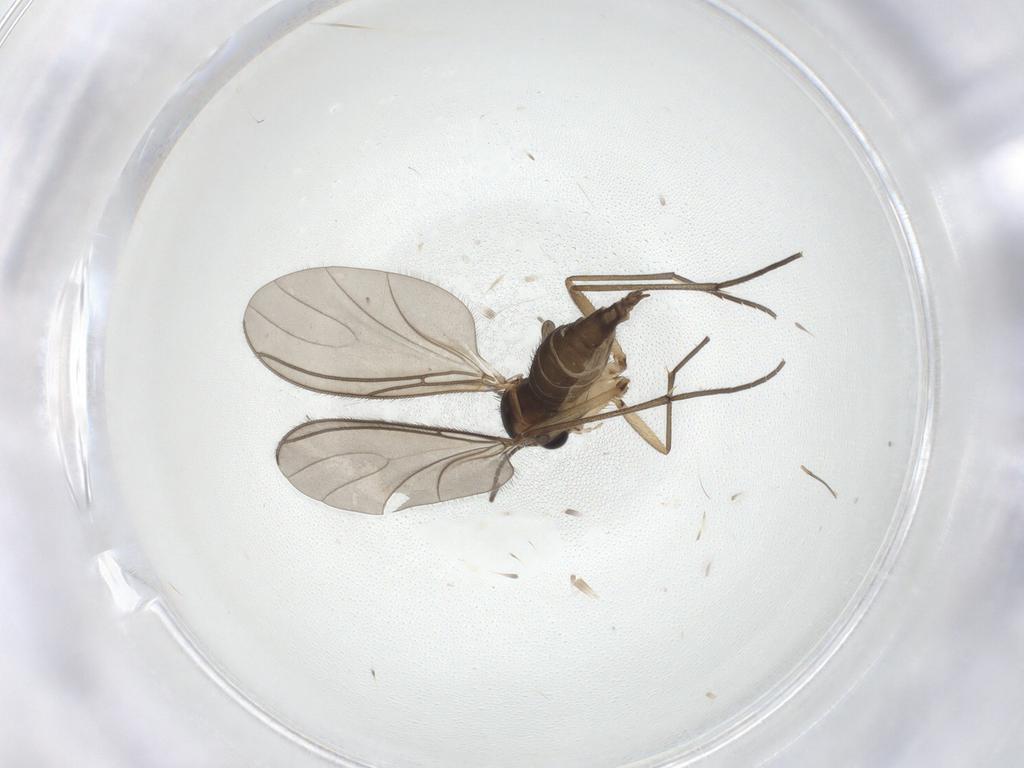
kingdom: Animalia
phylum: Arthropoda
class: Insecta
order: Diptera
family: Sciaridae
